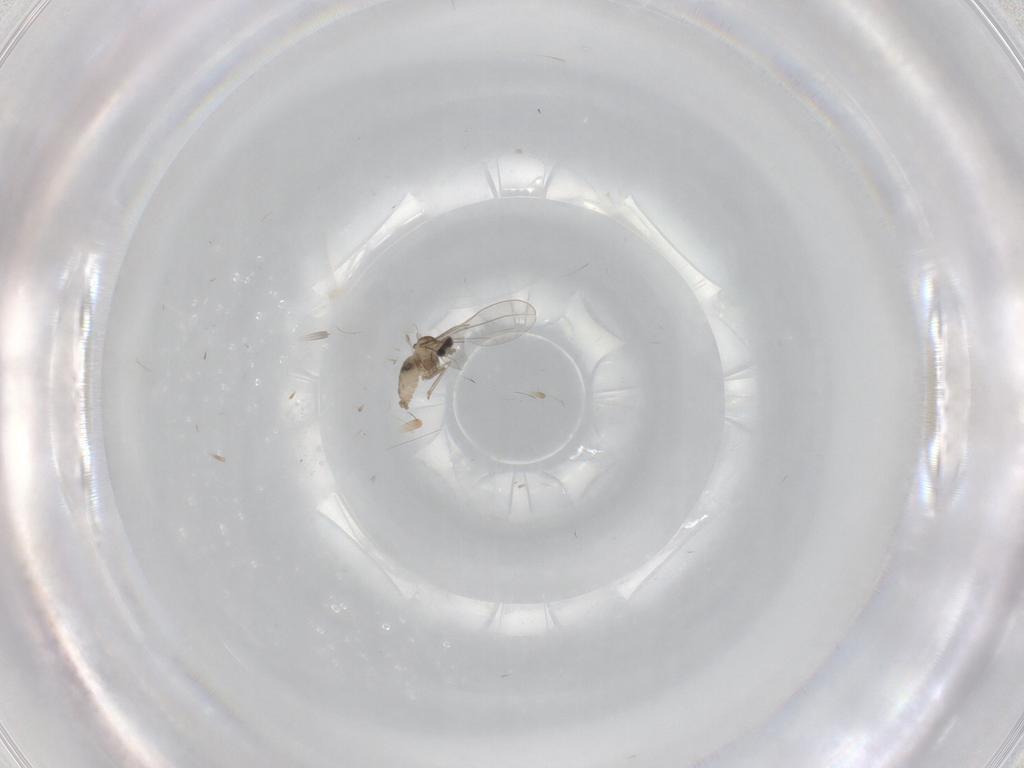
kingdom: Animalia
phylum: Arthropoda
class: Insecta
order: Diptera
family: Cecidomyiidae
